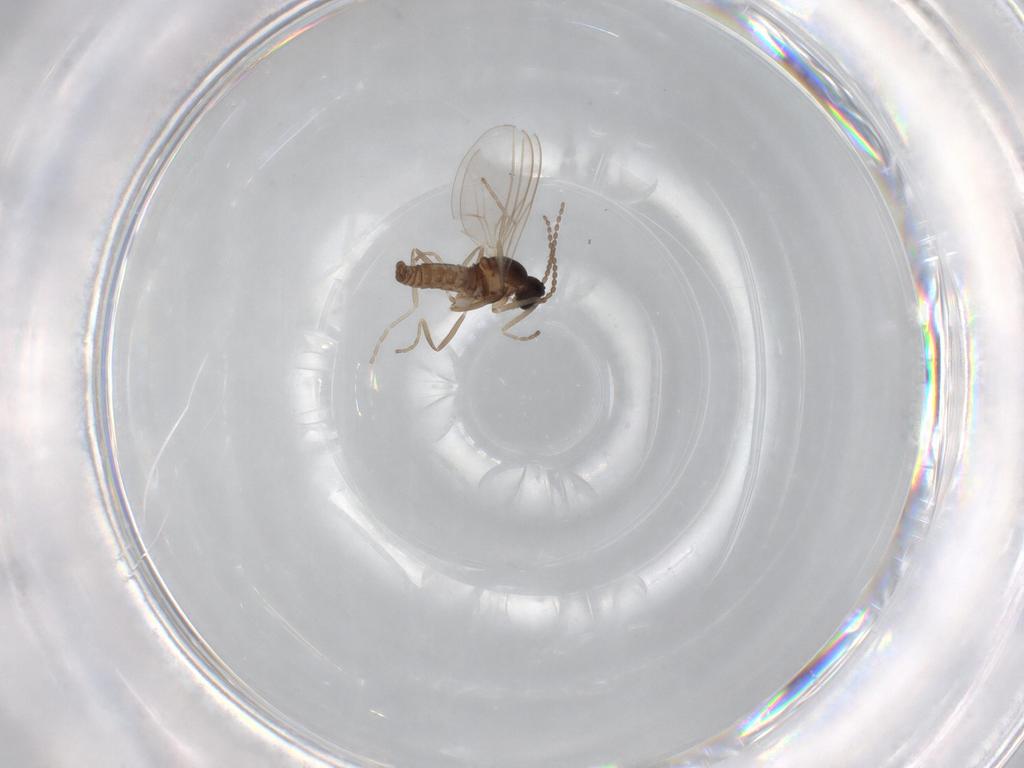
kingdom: Animalia
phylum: Arthropoda
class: Insecta
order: Diptera
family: Cecidomyiidae
